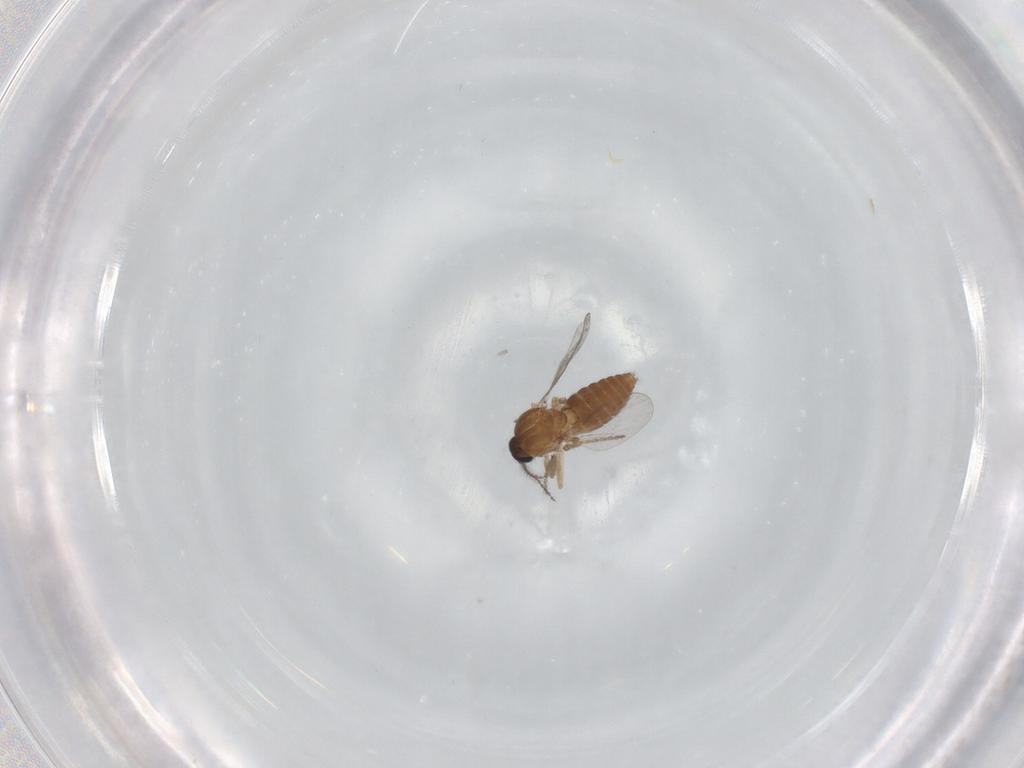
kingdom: Animalia
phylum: Arthropoda
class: Insecta
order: Diptera
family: Ceratopogonidae
